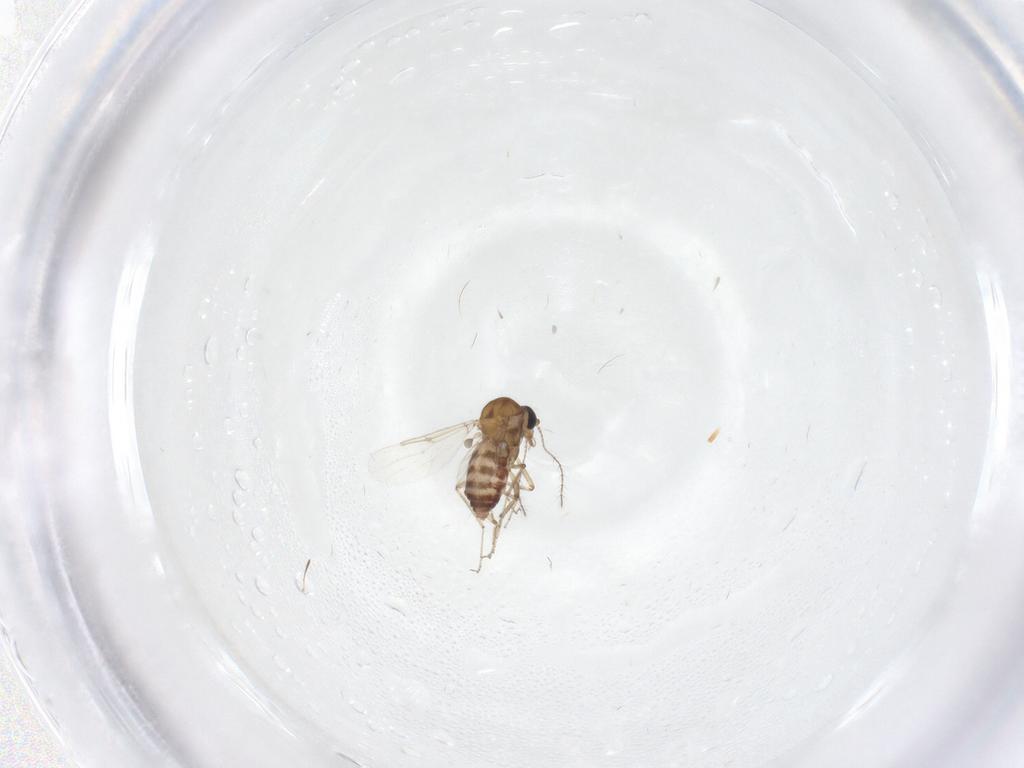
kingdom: Animalia
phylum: Arthropoda
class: Insecta
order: Diptera
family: Ceratopogonidae
